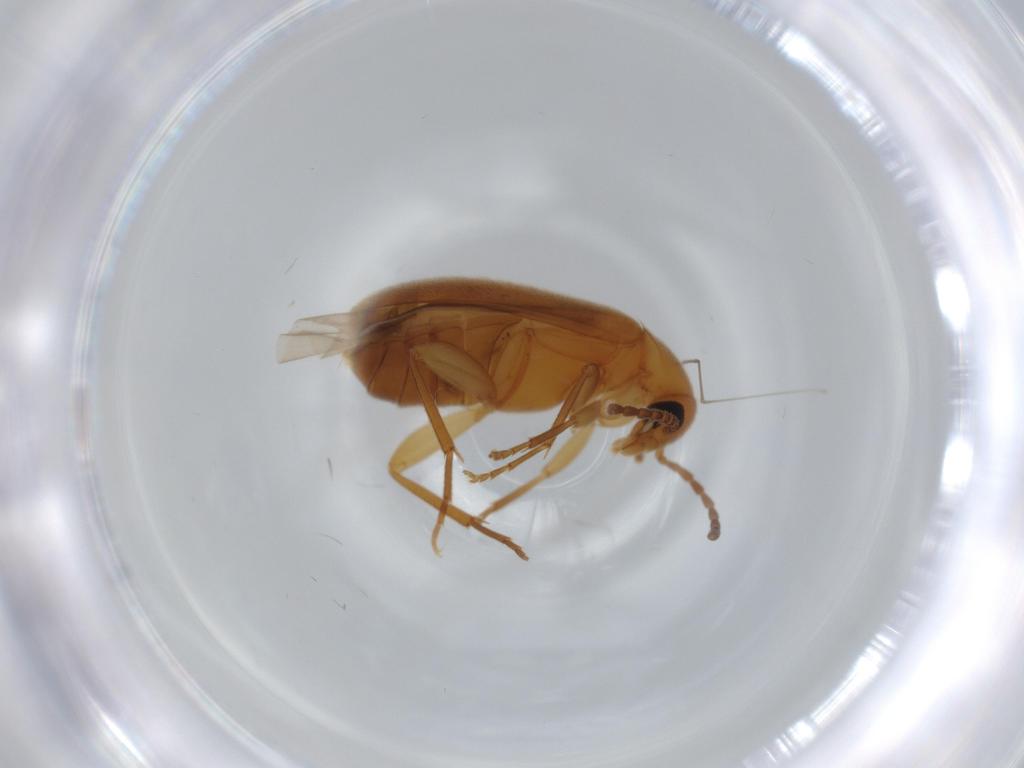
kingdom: Animalia
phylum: Arthropoda
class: Insecta
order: Coleoptera
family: Scraptiidae
